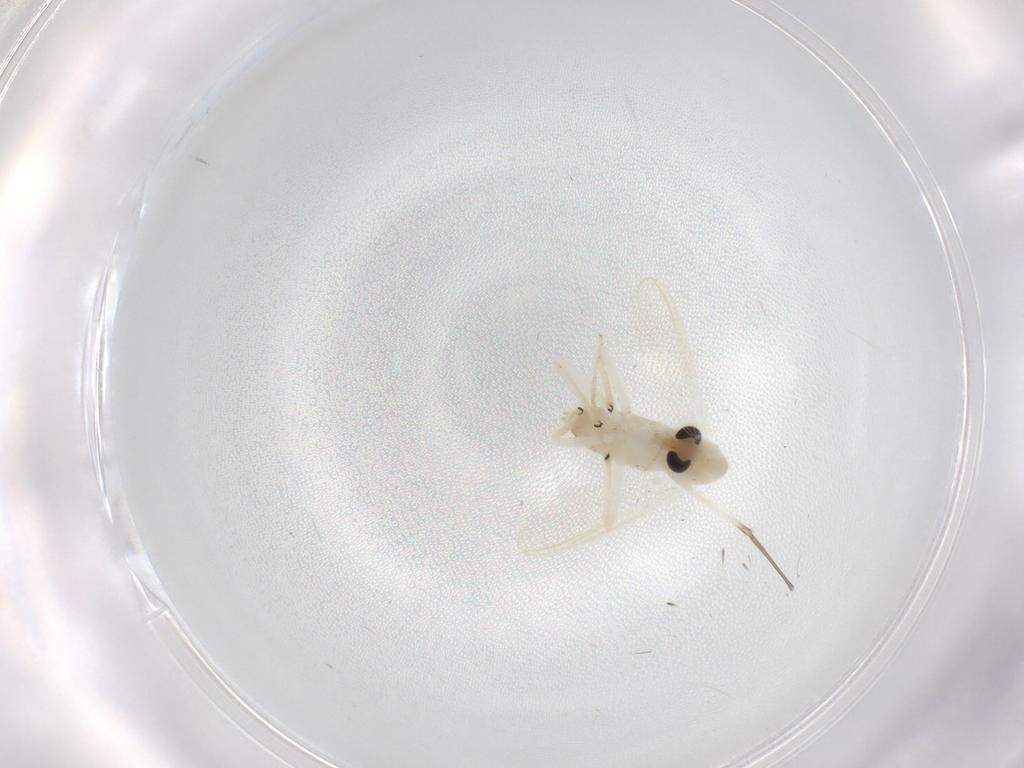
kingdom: Animalia
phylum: Arthropoda
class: Insecta
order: Diptera
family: Chironomidae
